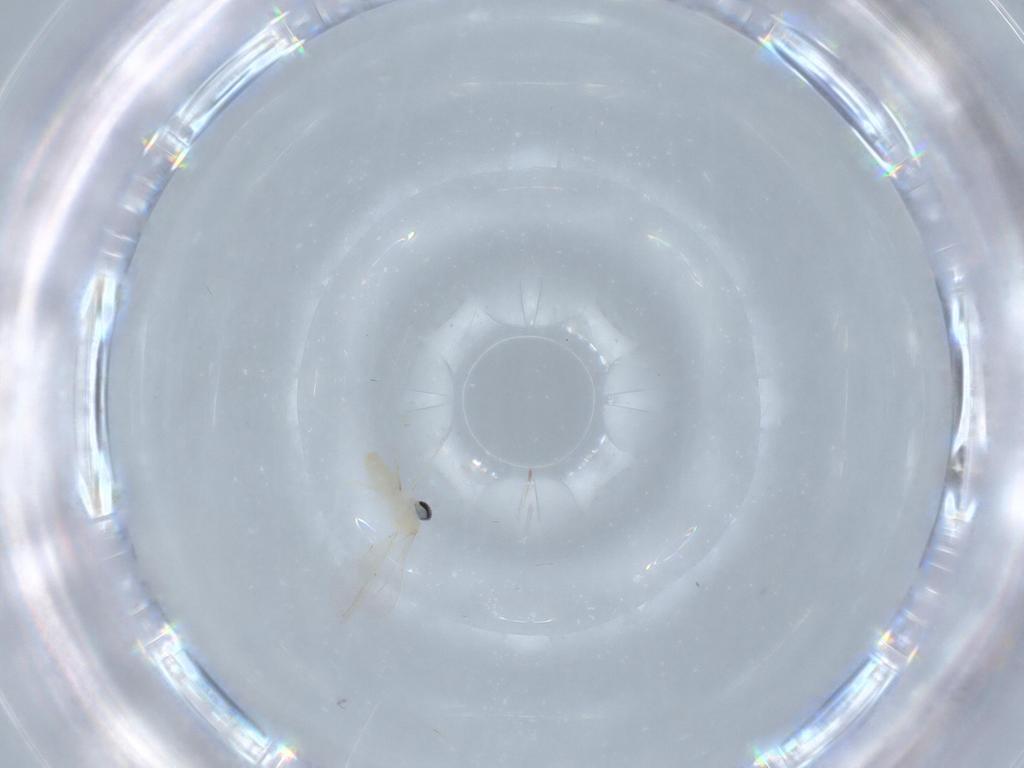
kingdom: Animalia
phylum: Arthropoda
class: Insecta
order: Diptera
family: Cecidomyiidae
